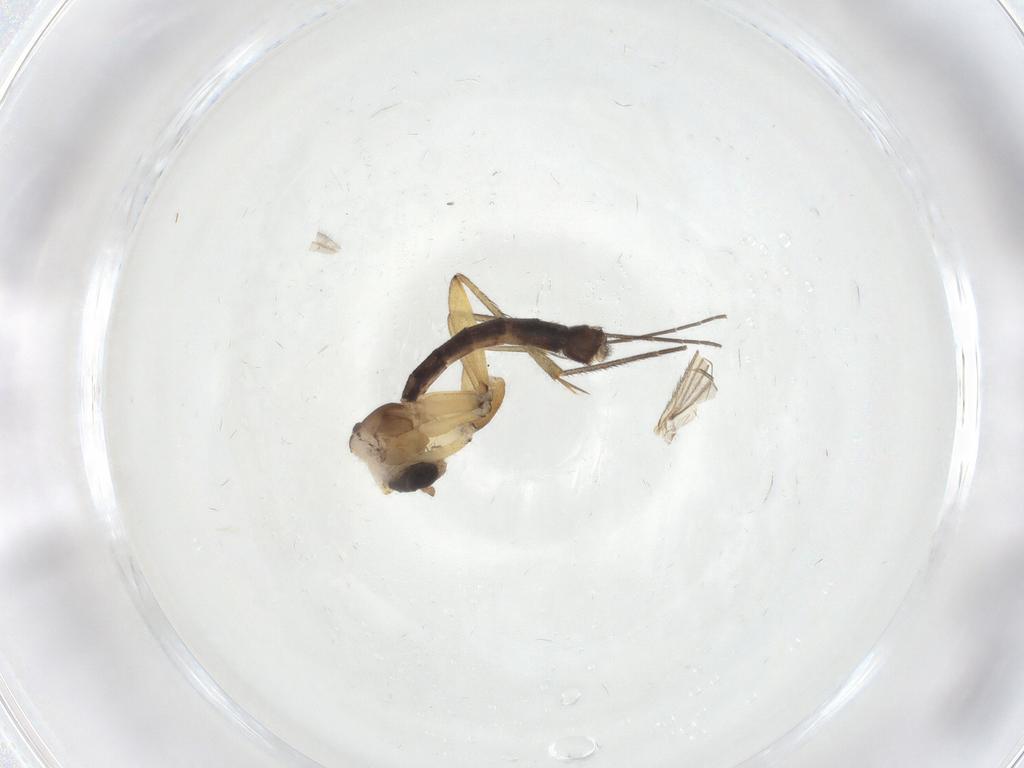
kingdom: Animalia
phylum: Arthropoda
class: Insecta
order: Diptera
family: Mycetophilidae
